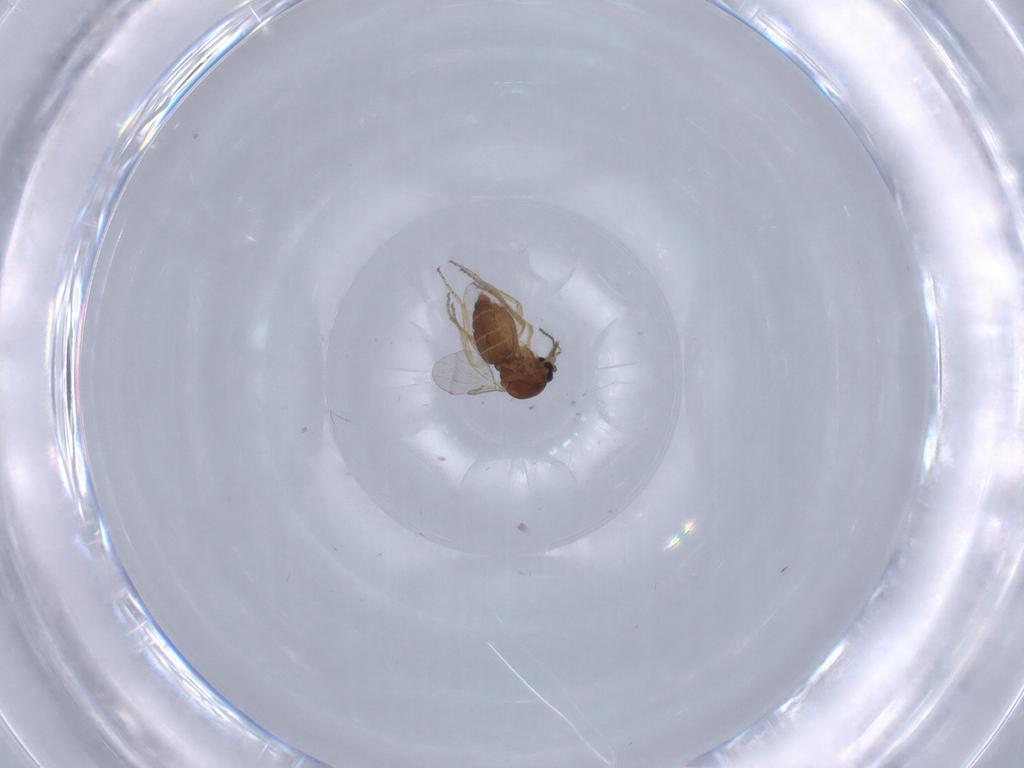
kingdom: Animalia
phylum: Arthropoda
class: Insecta
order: Diptera
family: Ceratopogonidae
